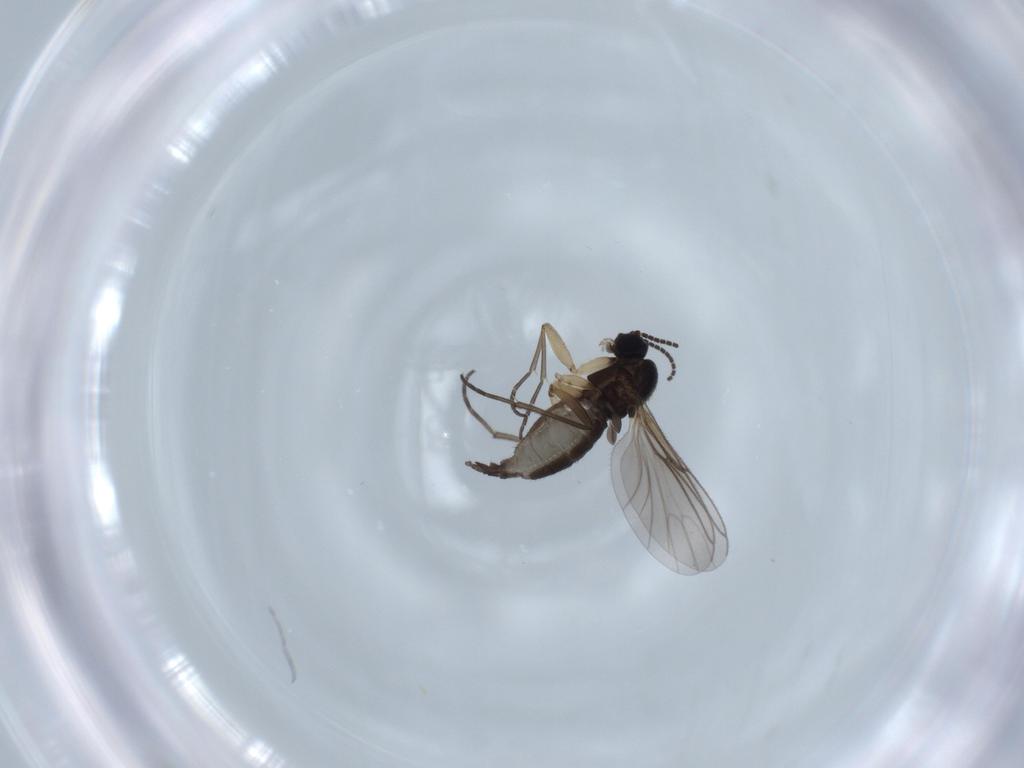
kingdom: Animalia
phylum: Arthropoda
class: Insecta
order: Diptera
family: Sciaridae
